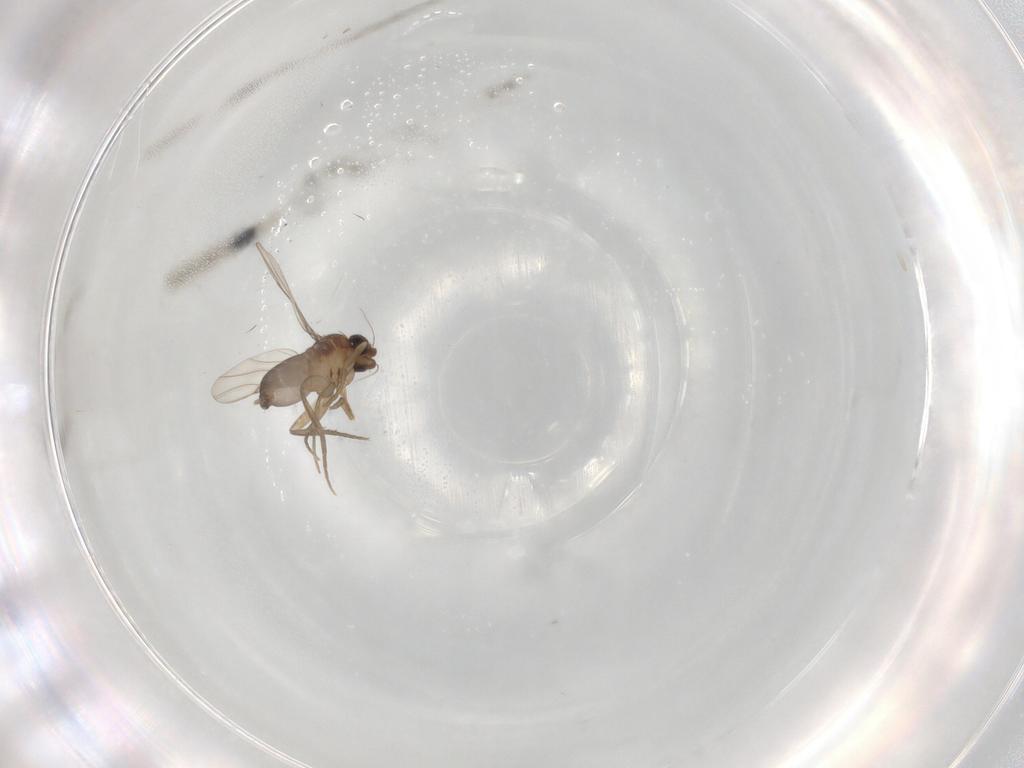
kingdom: Animalia
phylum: Arthropoda
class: Insecta
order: Diptera
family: Phoridae
